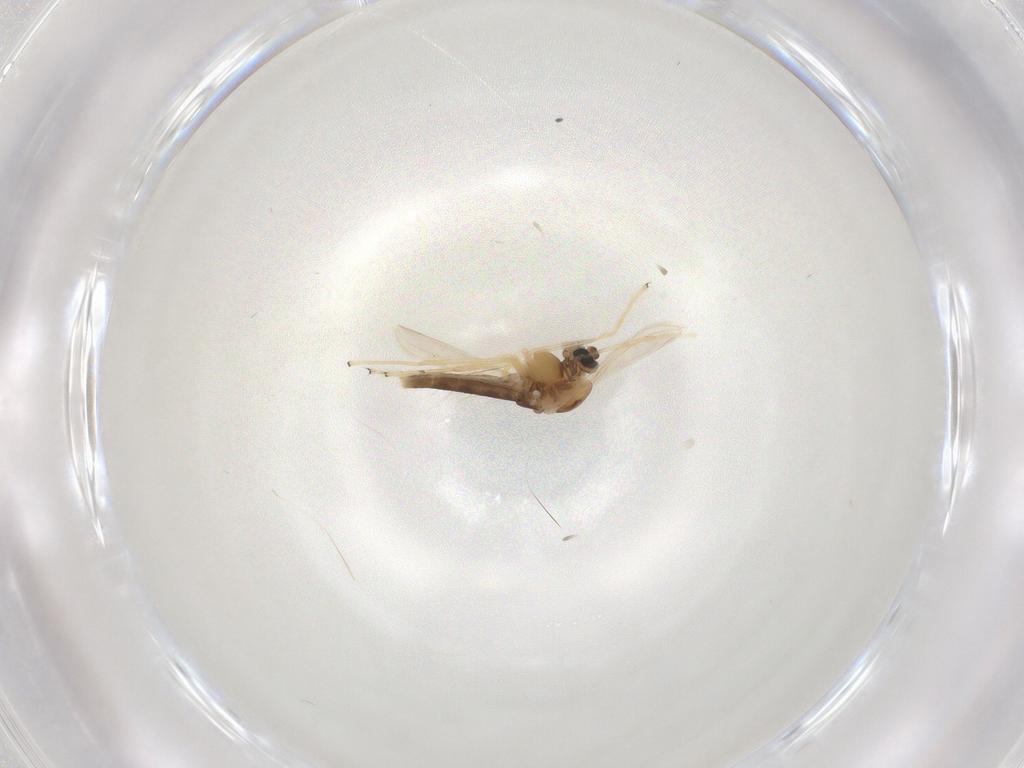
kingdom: Animalia
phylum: Arthropoda
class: Insecta
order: Diptera
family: Chironomidae
